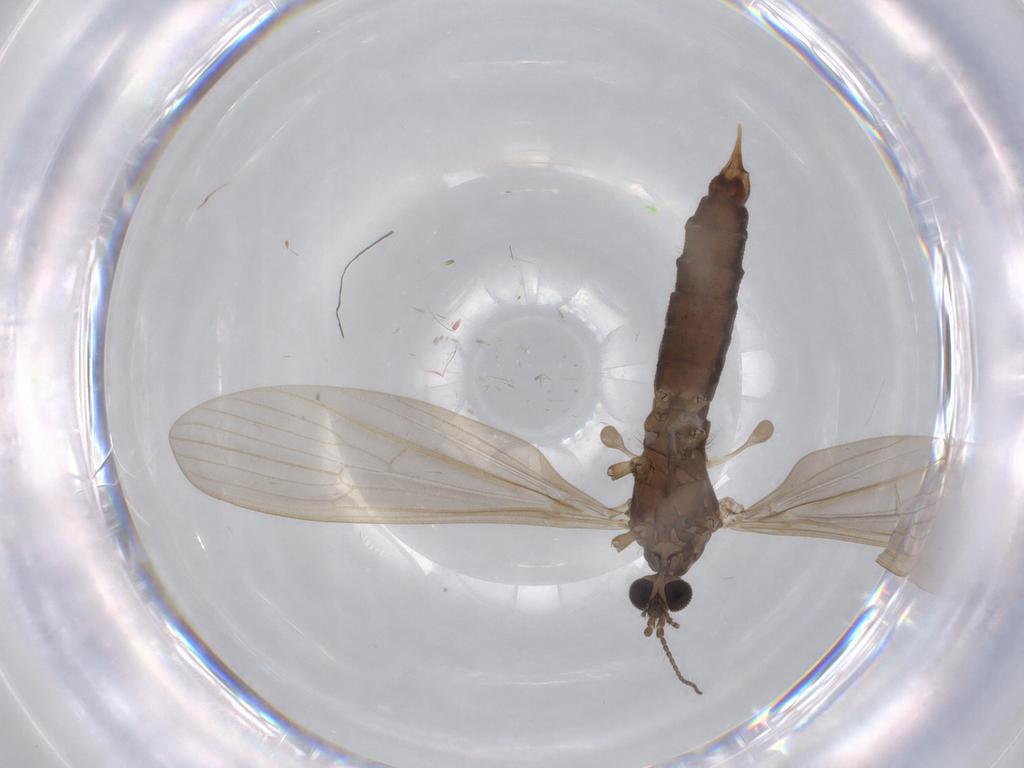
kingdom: Animalia
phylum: Arthropoda
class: Insecta
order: Diptera
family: Limoniidae
